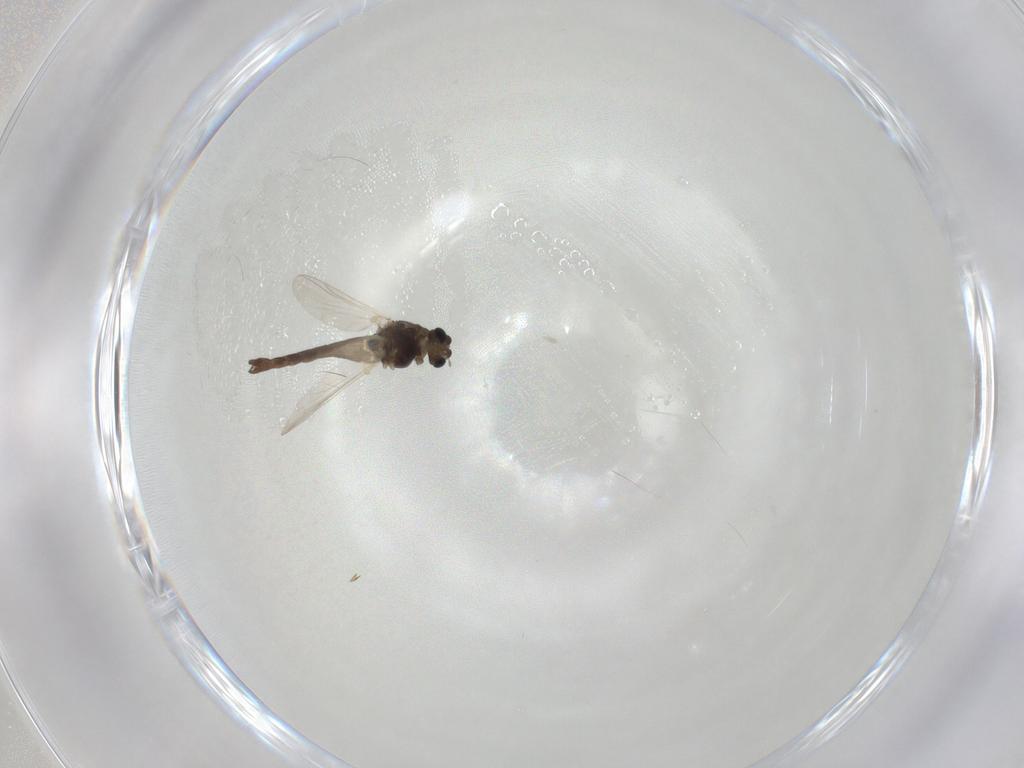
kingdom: Animalia
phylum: Arthropoda
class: Insecta
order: Diptera
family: Chironomidae
